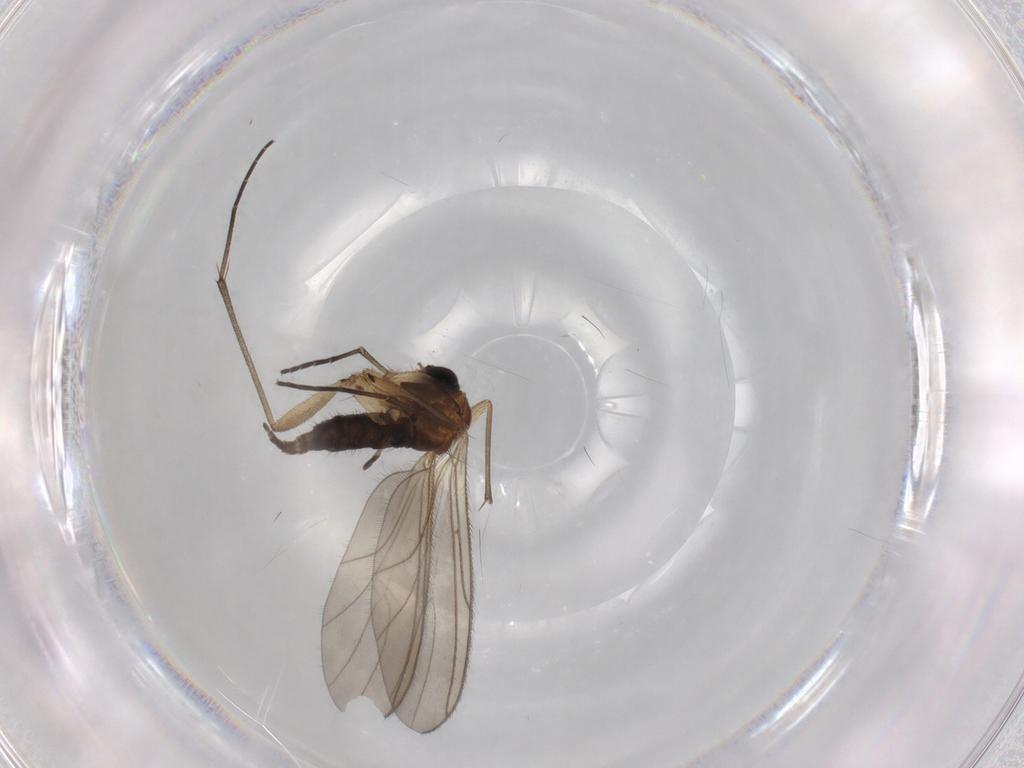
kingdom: Animalia
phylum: Arthropoda
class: Insecta
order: Diptera
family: Sciaridae
